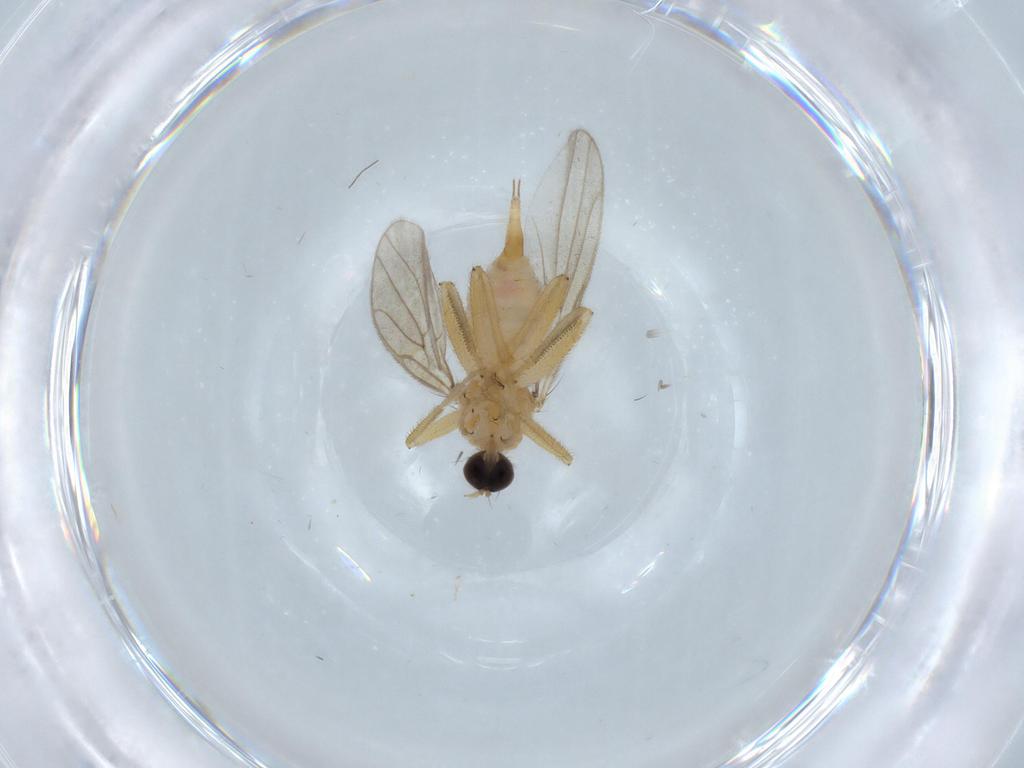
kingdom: Animalia
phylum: Arthropoda
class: Insecta
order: Diptera
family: Hybotidae
